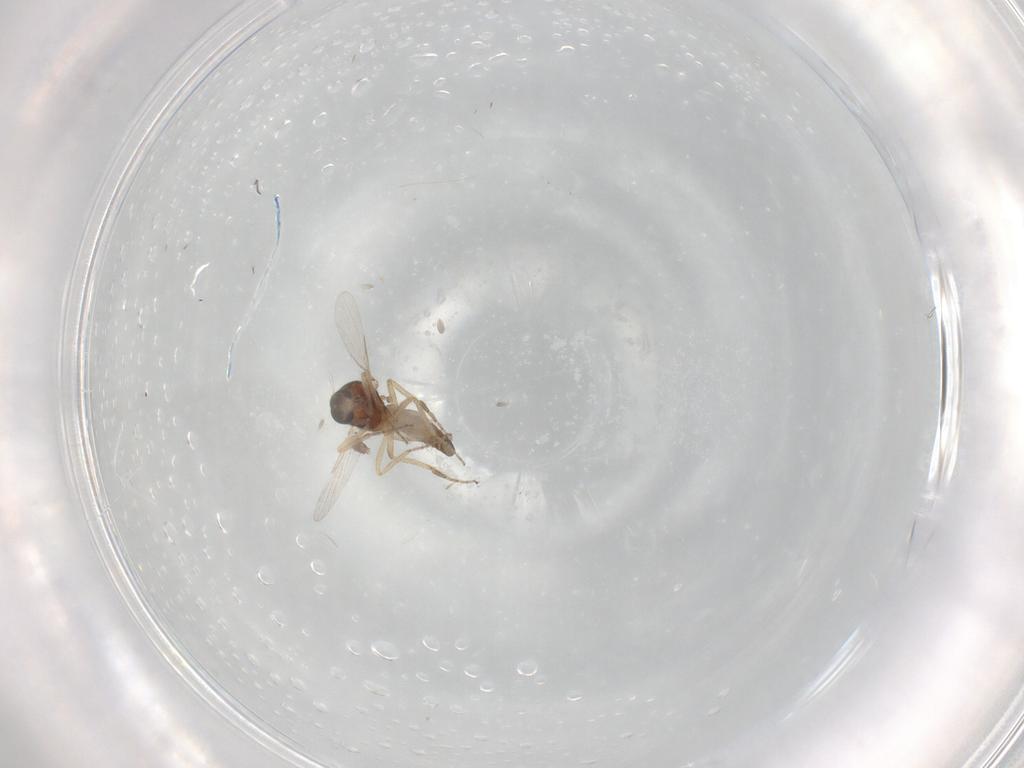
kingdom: Animalia
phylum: Arthropoda
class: Insecta
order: Diptera
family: Ceratopogonidae
